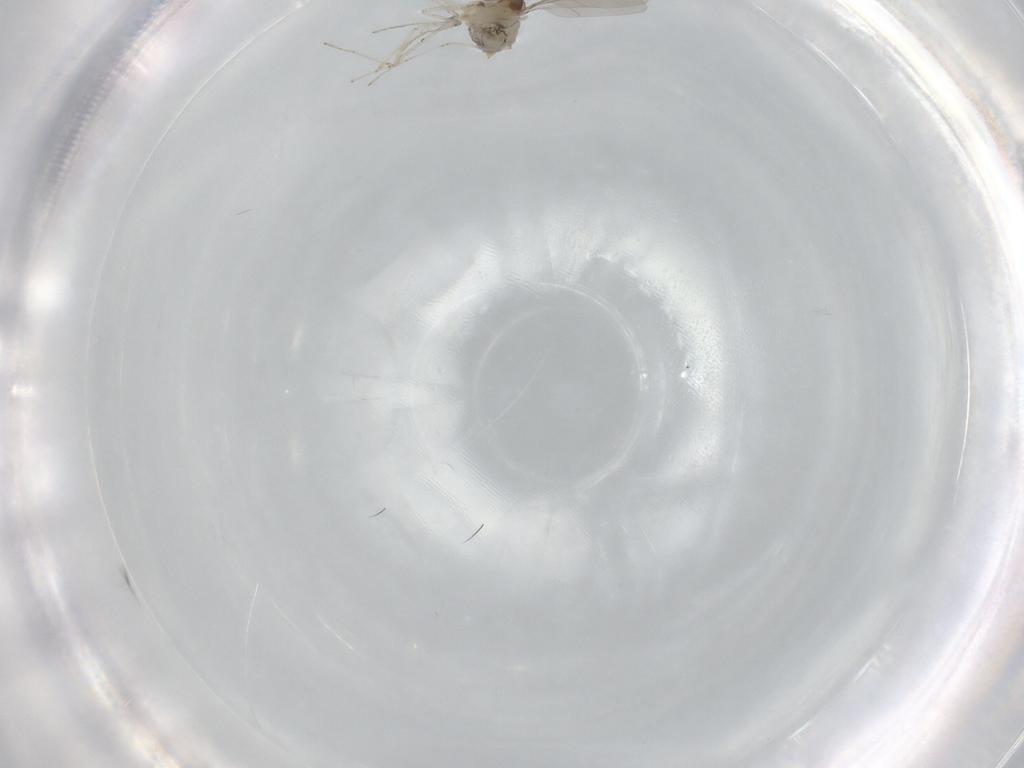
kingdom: Animalia
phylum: Arthropoda
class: Insecta
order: Diptera
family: Cecidomyiidae
